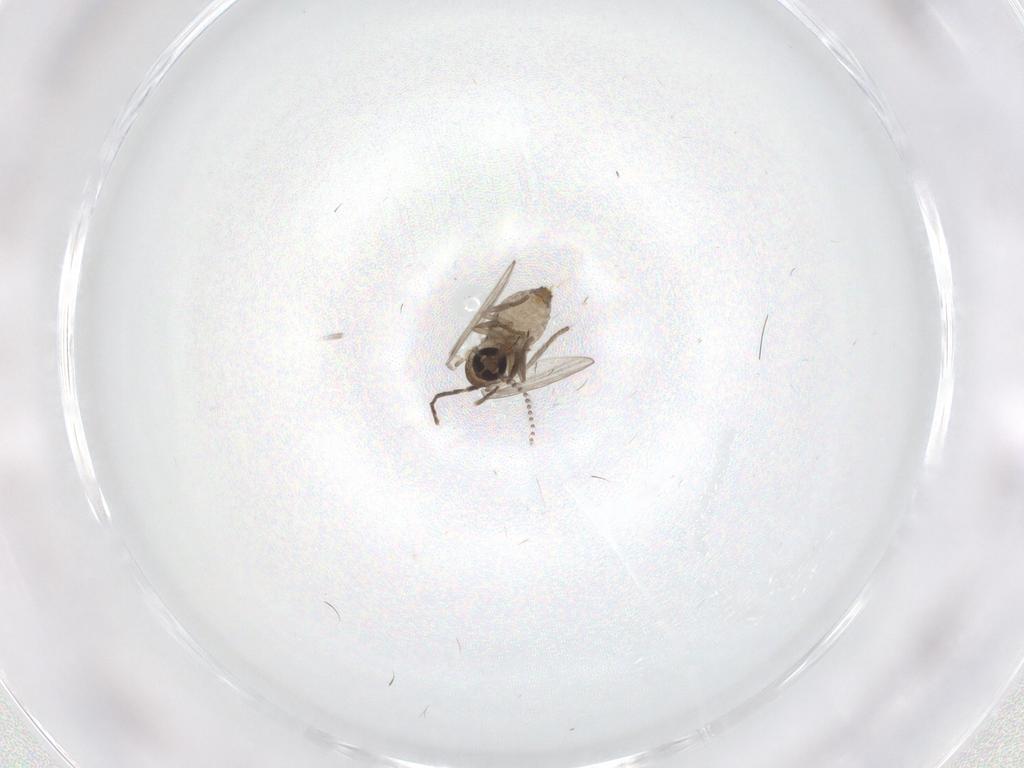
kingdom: Animalia
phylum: Arthropoda
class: Insecta
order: Diptera
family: Psychodidae
